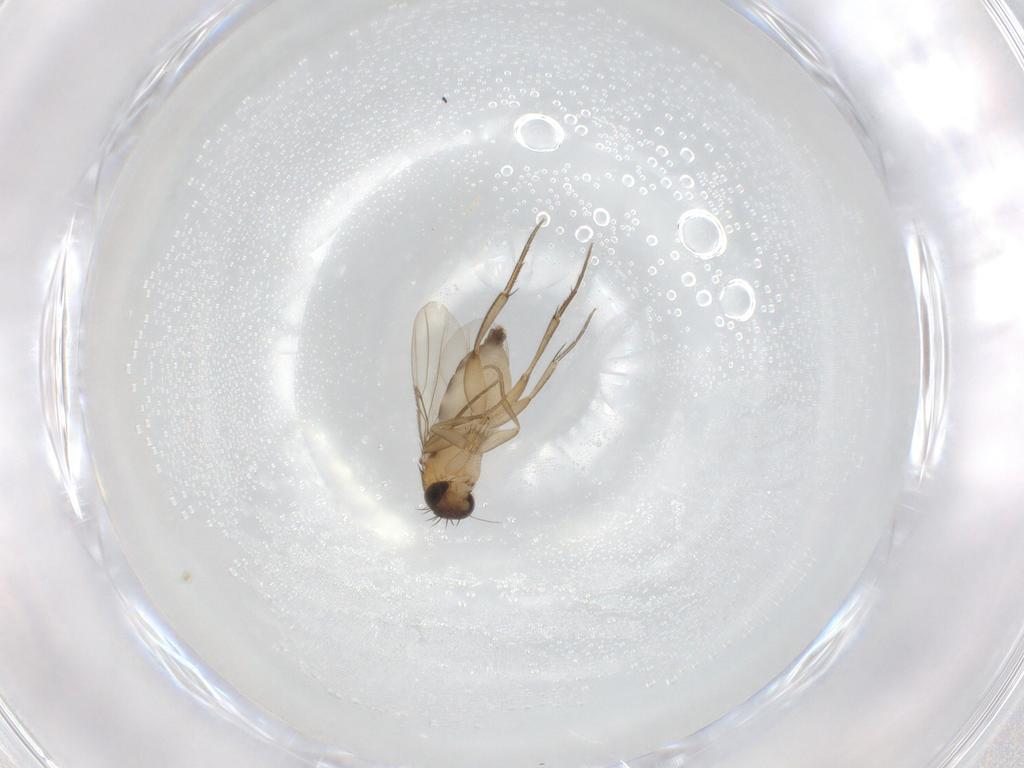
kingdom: Animalia
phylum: Arthropoda
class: Insecta
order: Diptera
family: Phoridae
